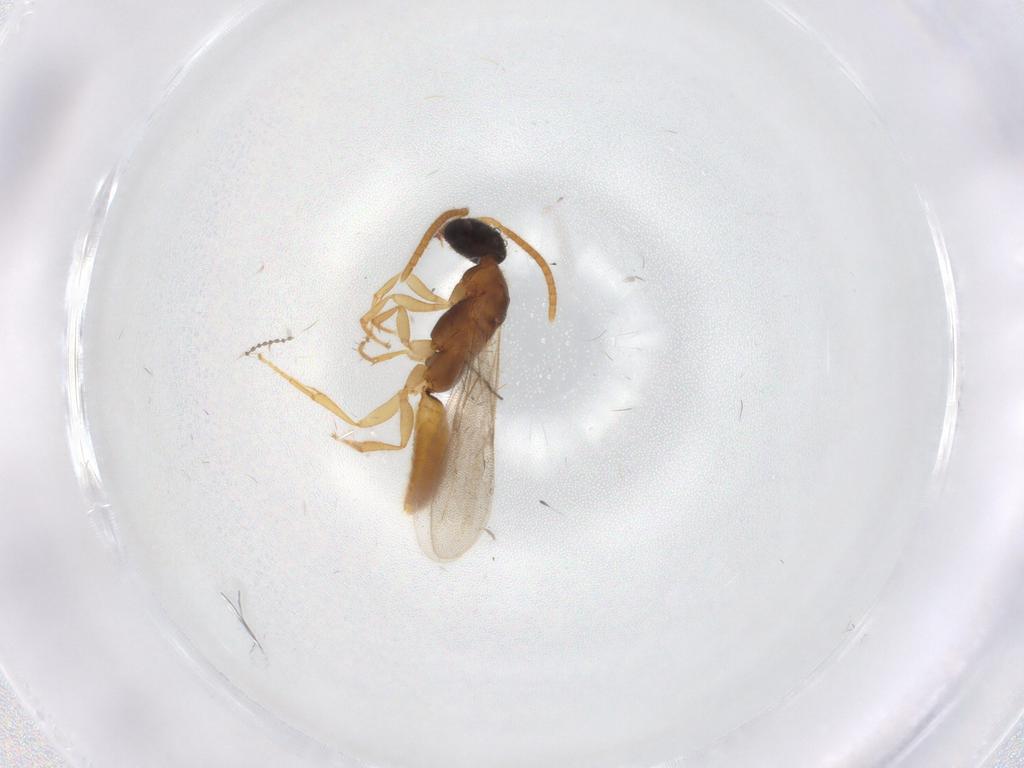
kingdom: Animalia
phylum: Arthropoda
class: Insecta
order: Hymenoptera
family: Bethylidae
